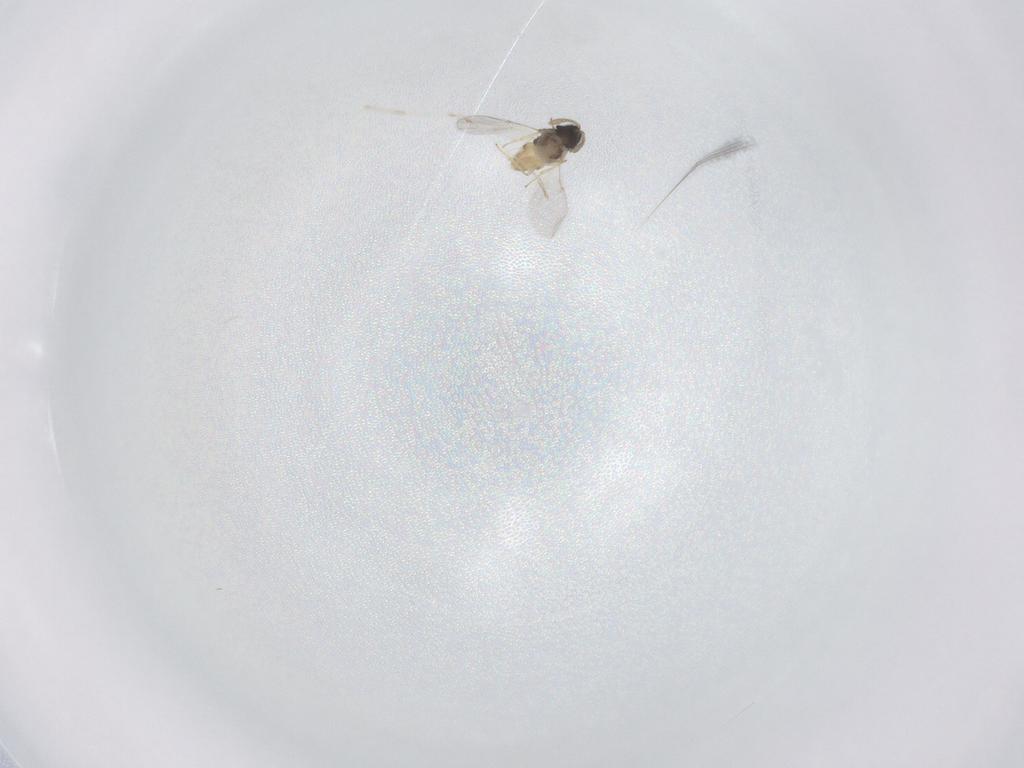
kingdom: Animalia
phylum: Arthropoda
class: Insecta
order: Hymenoptera
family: Encyrtidae
